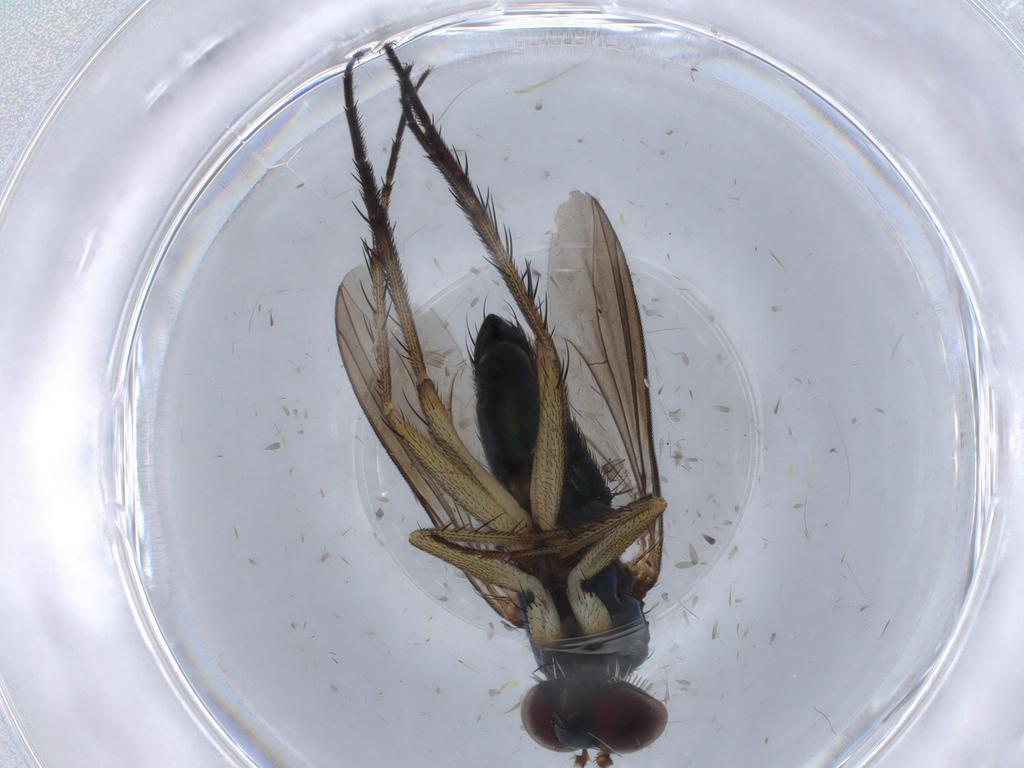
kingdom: Animalia
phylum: Arthropoda
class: Insecta
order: Diptera
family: Dolichopodidae
